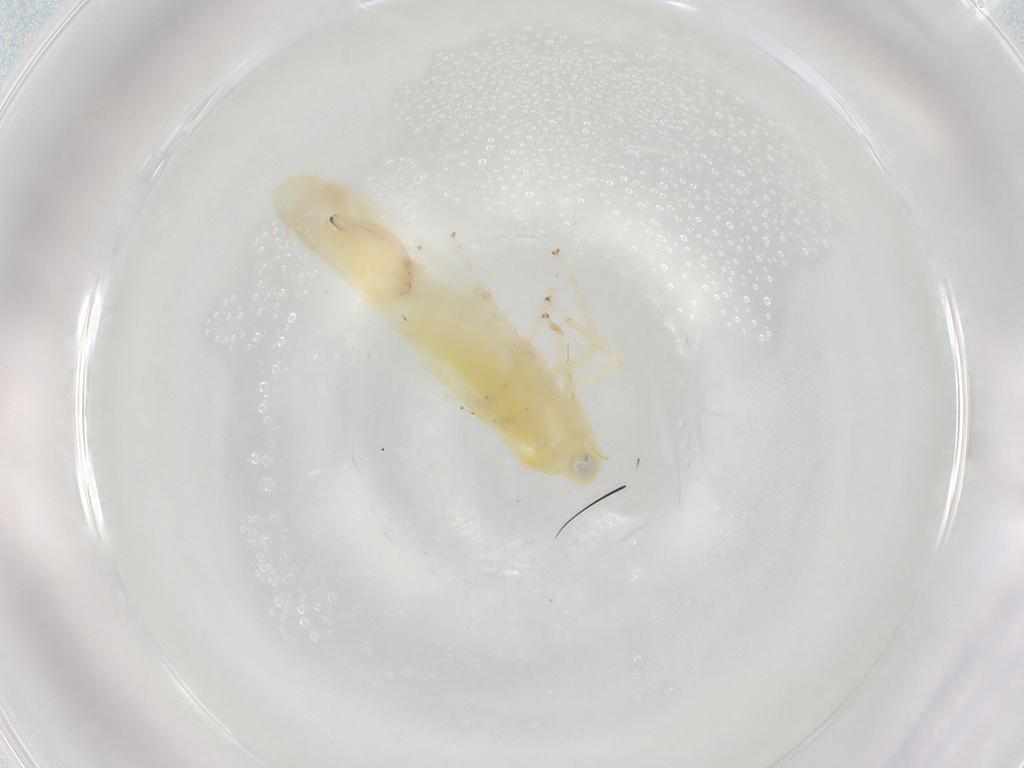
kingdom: Animalia
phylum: Arthropoda
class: Insecta
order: Hemiptera
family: Cicadellidae
